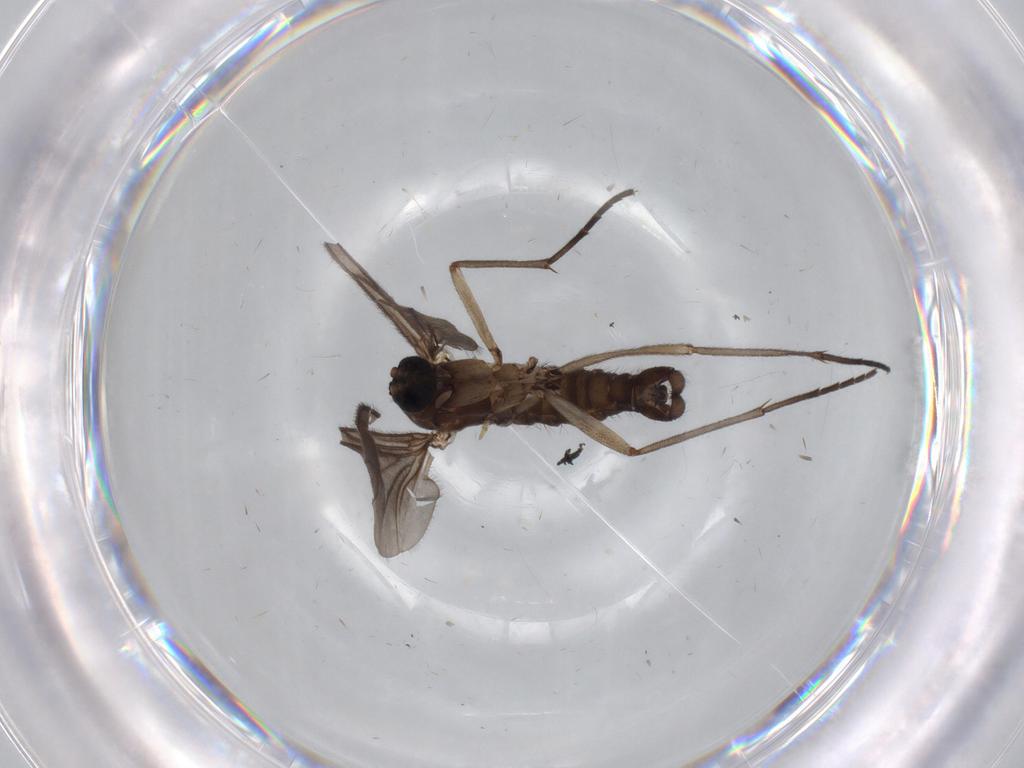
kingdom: Animalia
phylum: Arthropoda
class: Insecta
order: Diptera
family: Sciaridae
